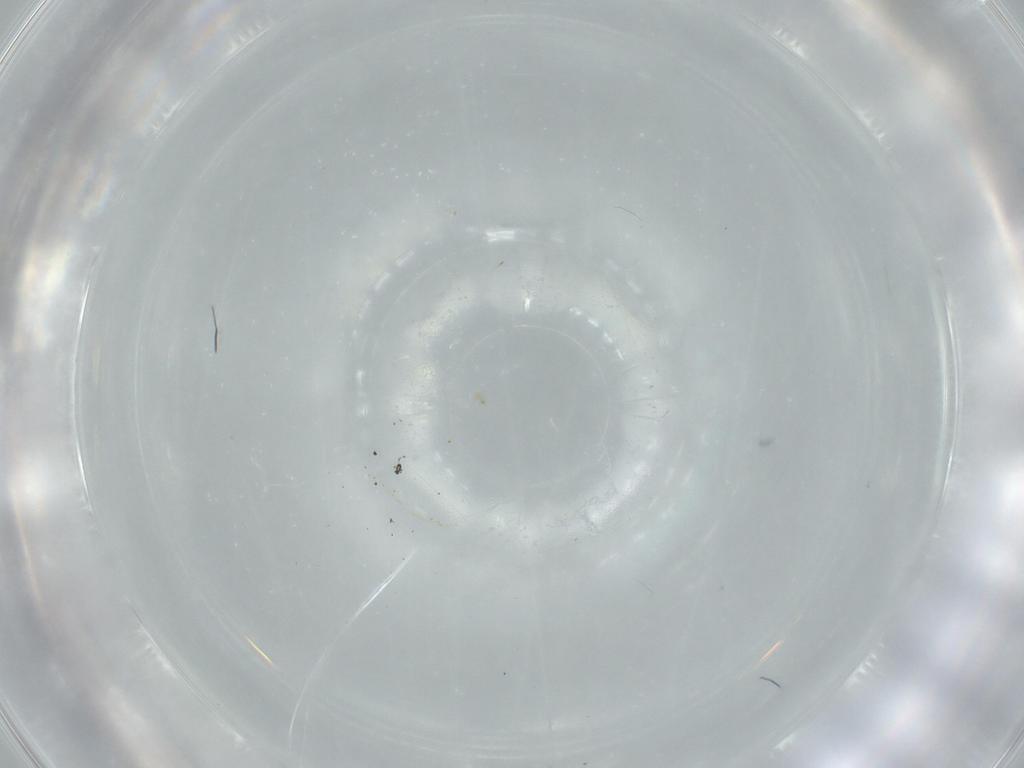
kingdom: Animalia
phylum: Arthropoda
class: Insecta
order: Diptera
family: Cecidomyiidae
